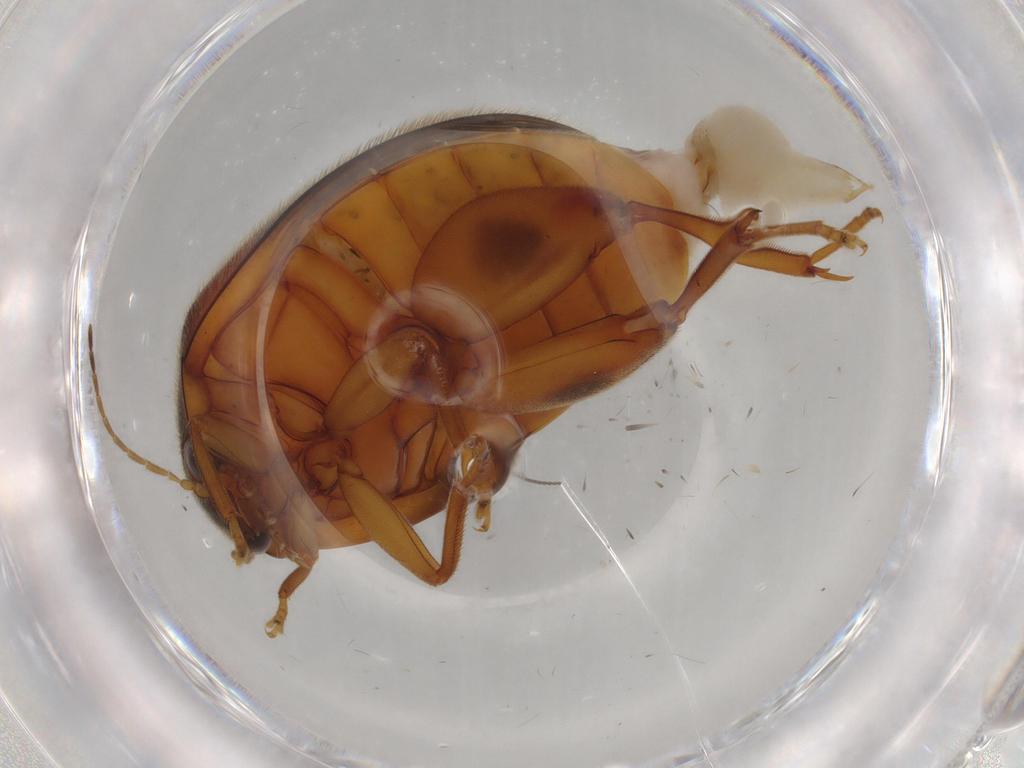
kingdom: Animalia
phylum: Arthropoda
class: Insecta
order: Coleoptera
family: Scirtidae
